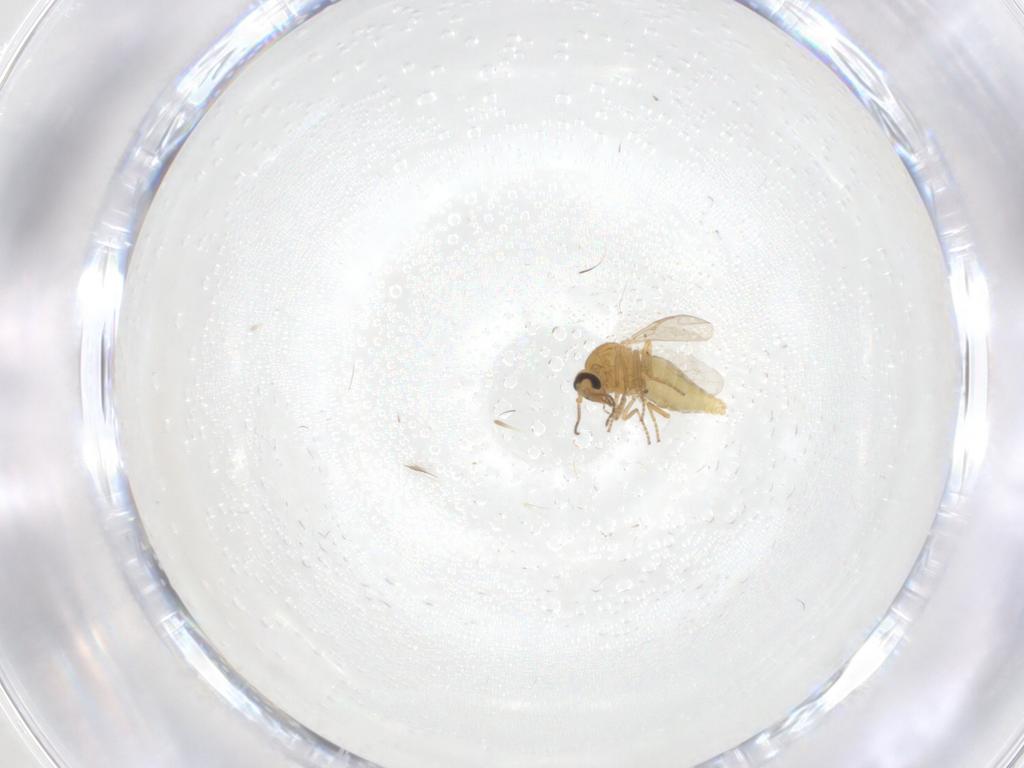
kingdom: Animalia
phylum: Arthropoda
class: Insecta
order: Diptera
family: Ceratopogonidae
